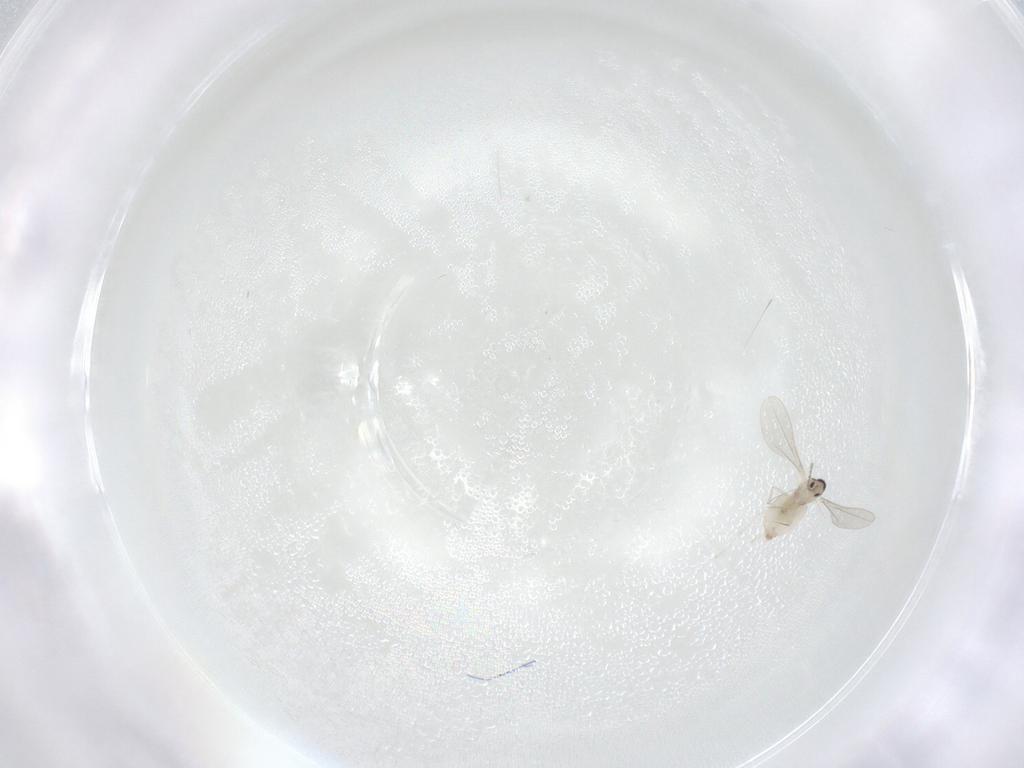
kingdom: Animalia
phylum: Arthropoda
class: Insecta
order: Diptera
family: Cecidomyiidae
